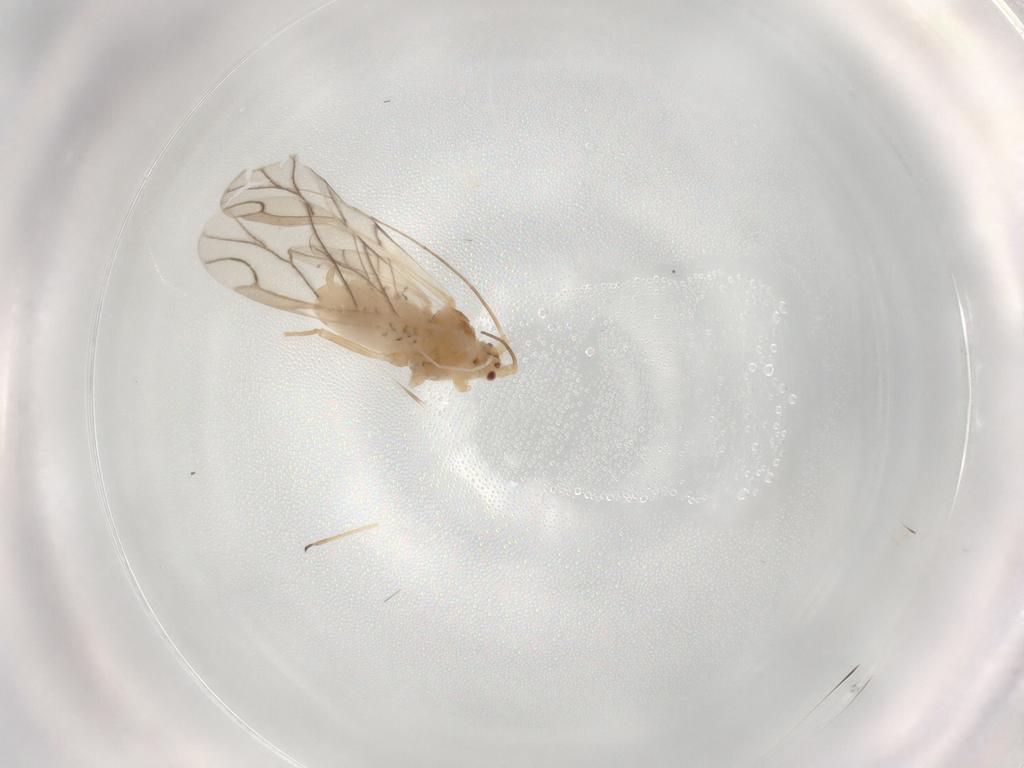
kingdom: Animalia
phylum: Arthropoda
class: Insecta
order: Hemiptera
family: Aphididae
